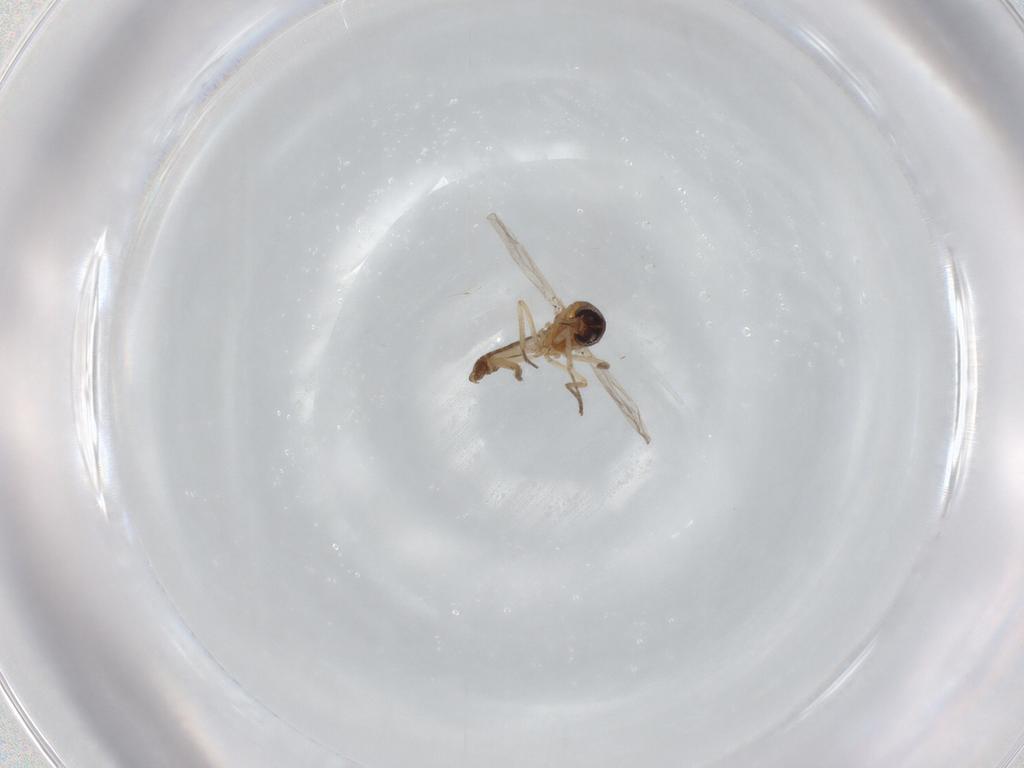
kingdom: Animalia
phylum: Arthropoda
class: Insecta
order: Diptera
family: Ceratopogonidae
